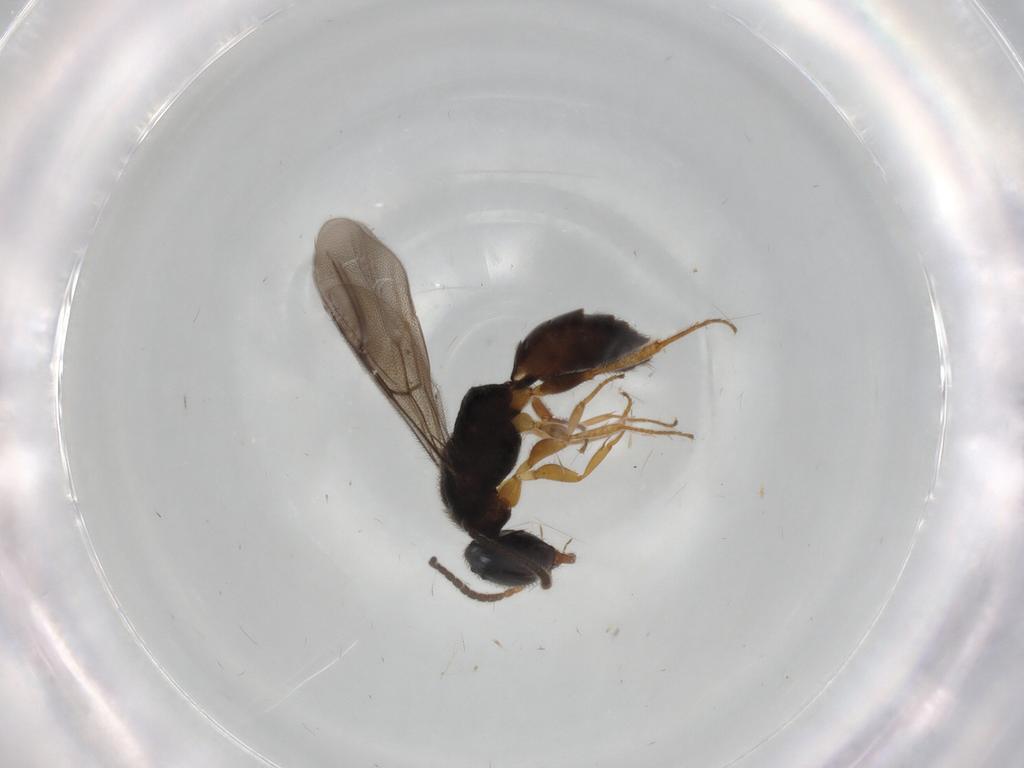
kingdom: Animalia
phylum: Arthropoda
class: Insecta
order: Hymenoptera
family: Bethylidae
